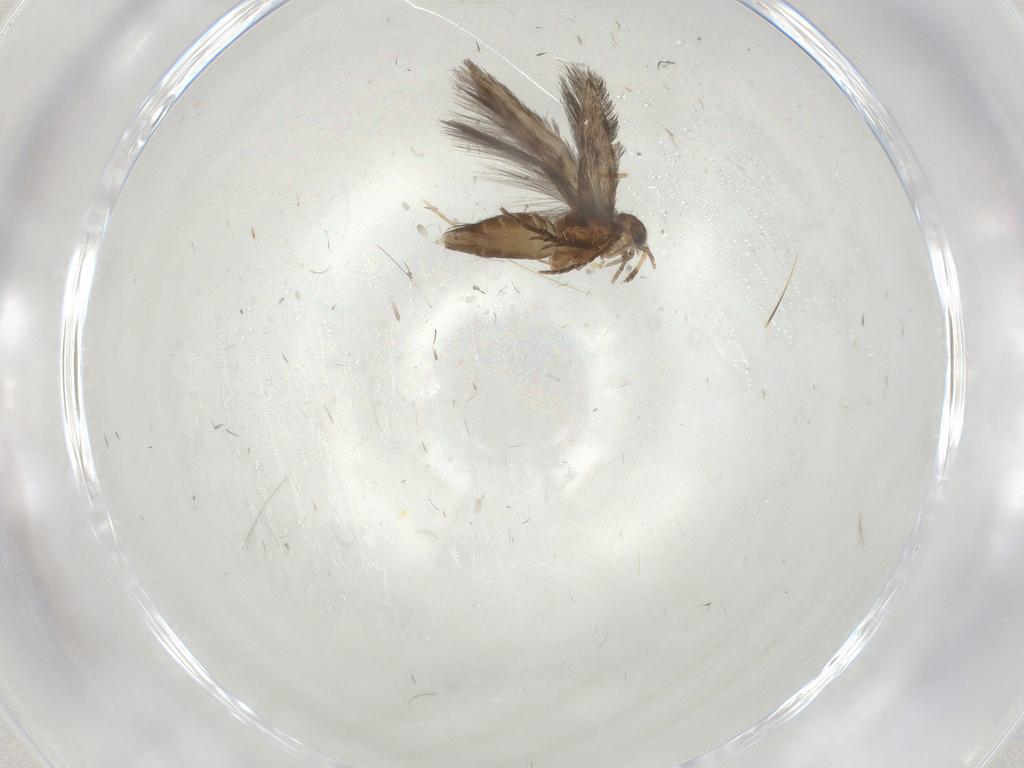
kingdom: Animalia
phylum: Arthropoda
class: Insecta
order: Trichoptera
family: Hydroptilidae
